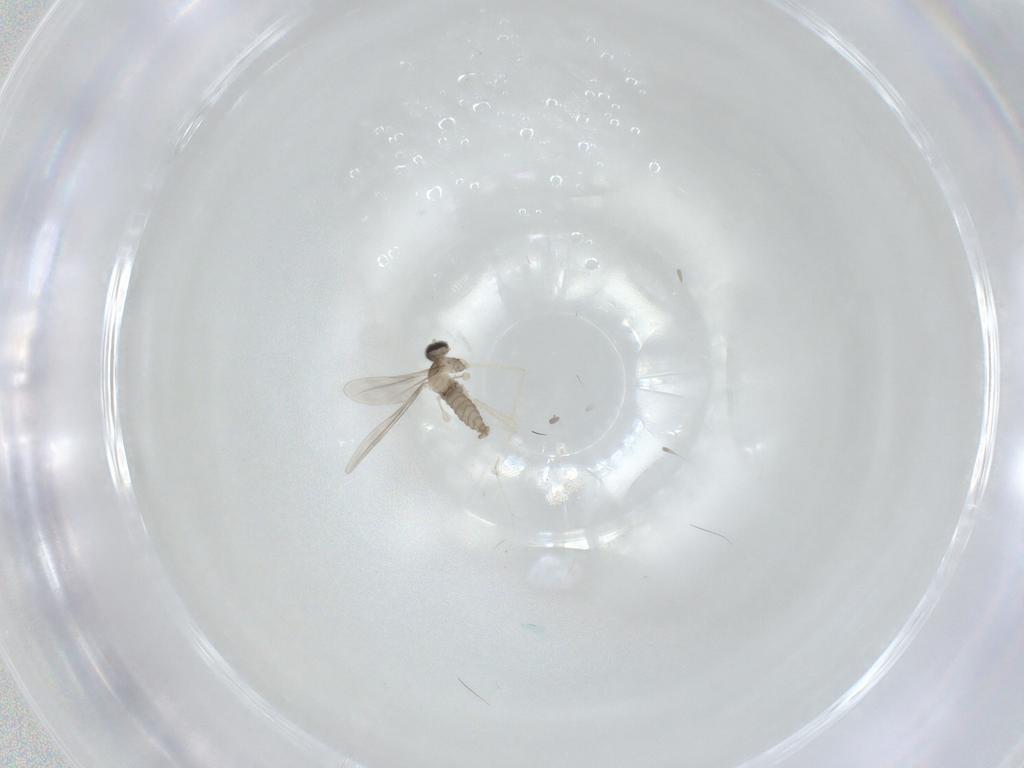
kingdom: Animalia
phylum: Arthropoda
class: Insecta
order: Diptera
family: Cecidomyiidae
